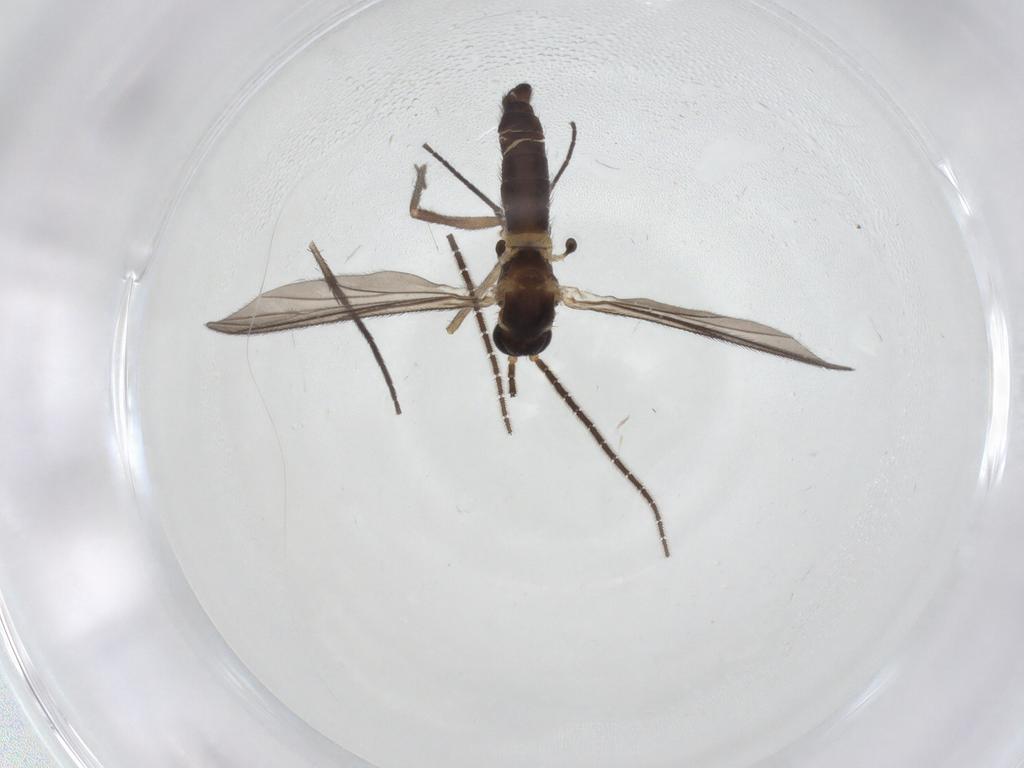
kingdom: Animalia
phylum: Arthropoda
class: Insecta
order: Diptera
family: Sciaridae
